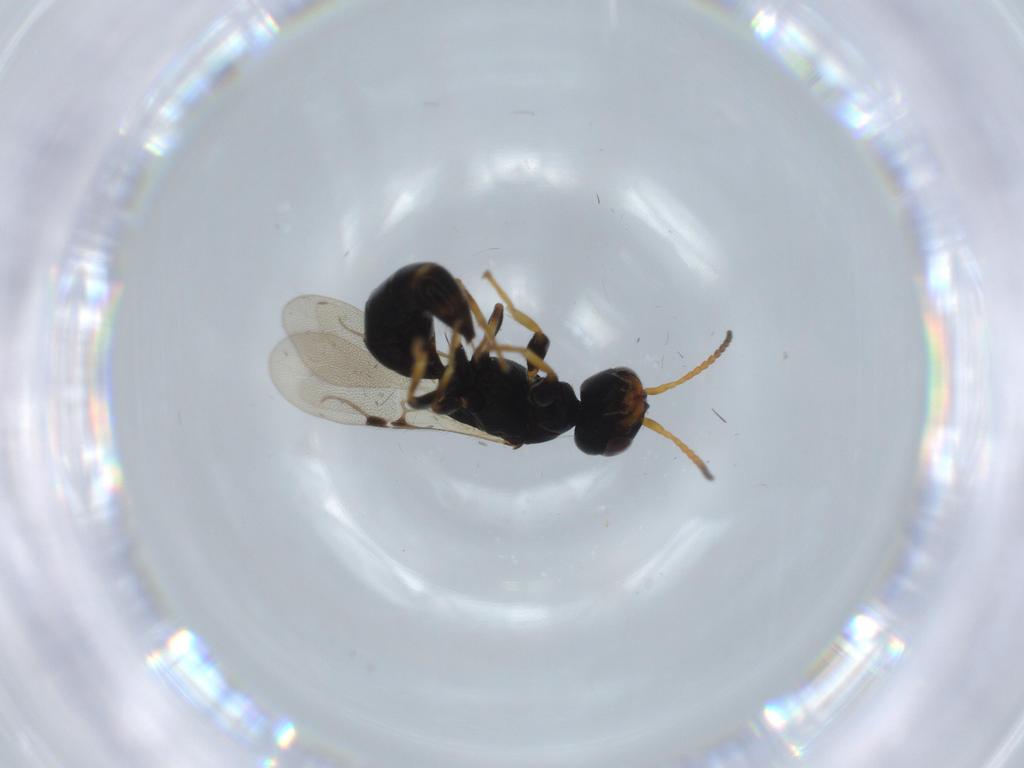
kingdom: Animalia
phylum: Arthropoda
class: Insecta
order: Hymenoptera
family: Bethylidae
